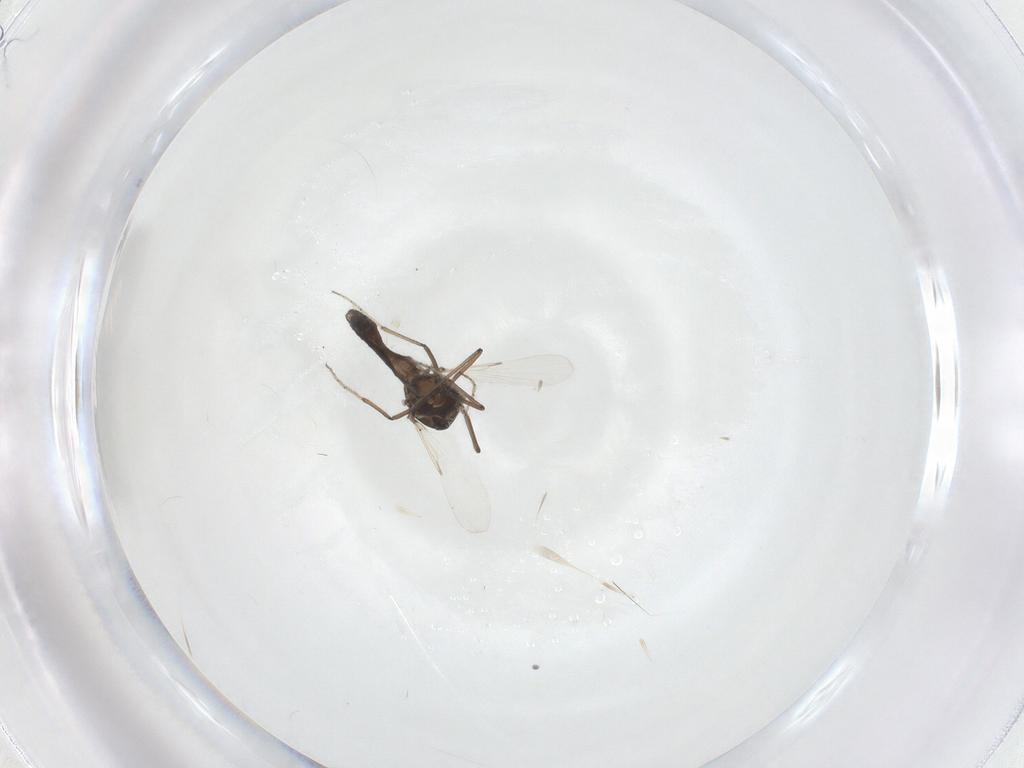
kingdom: Animalia
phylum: Arthropoda
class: Insecta
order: Diptera
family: Ceratopogonidae
